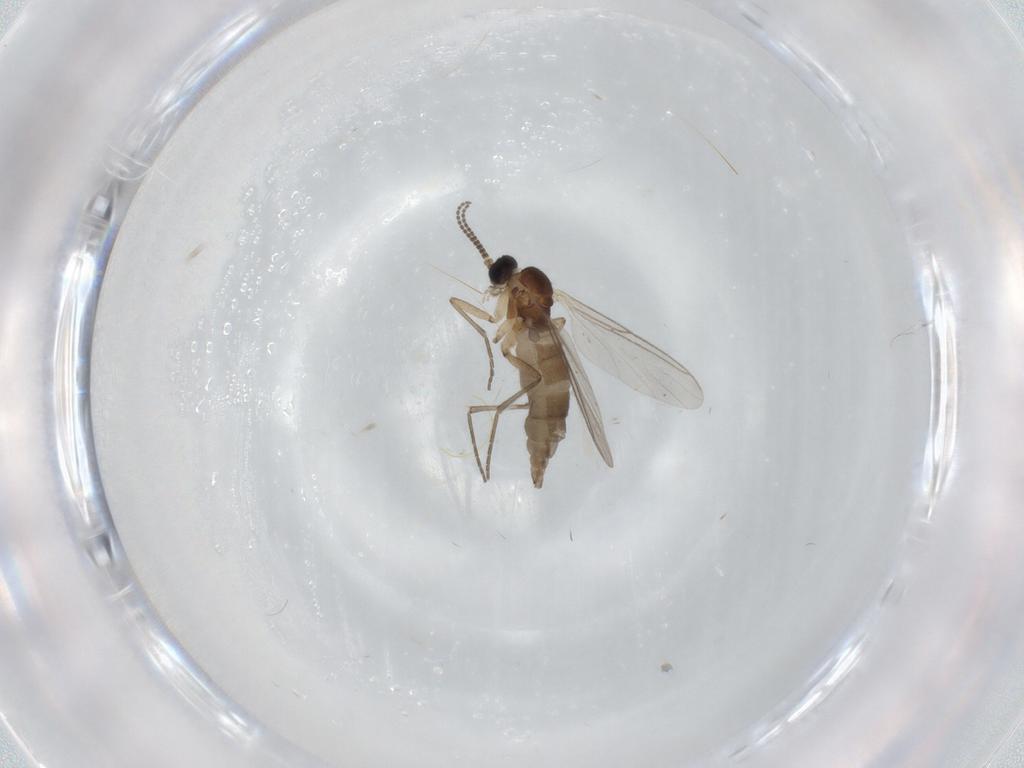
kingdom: Animalia
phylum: Arthropoda
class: Insecta
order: Diptera
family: Sciaridae
